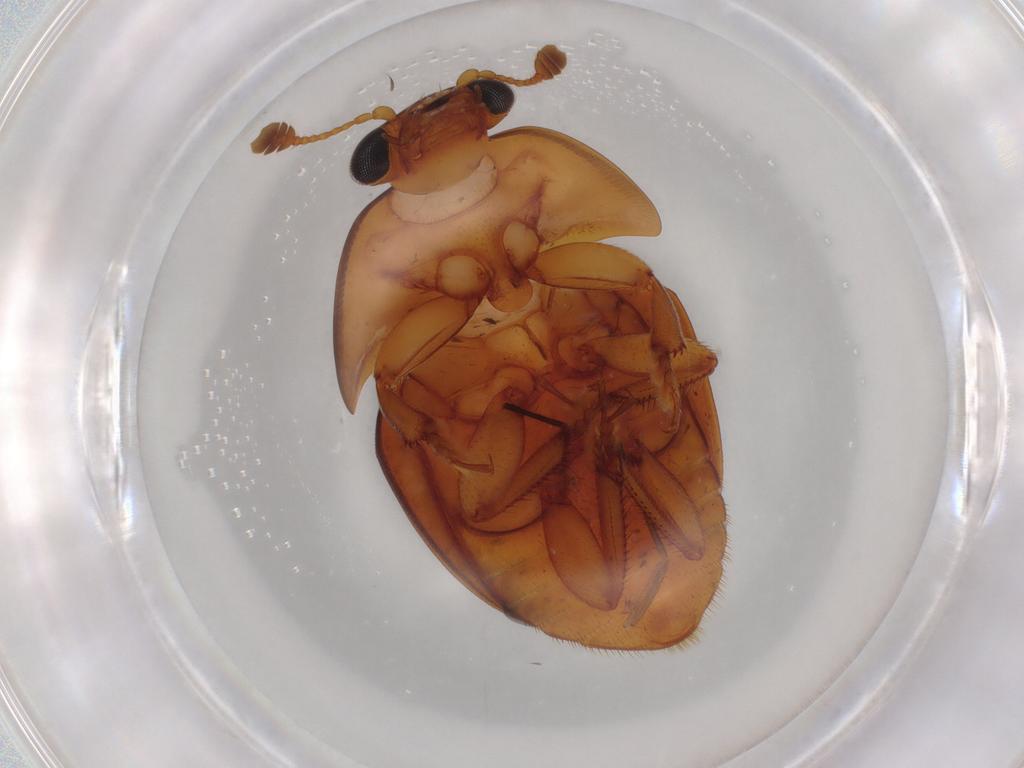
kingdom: Animalia
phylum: Arthropoda
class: Insecta
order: Coleoptera
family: Nitidulidae
